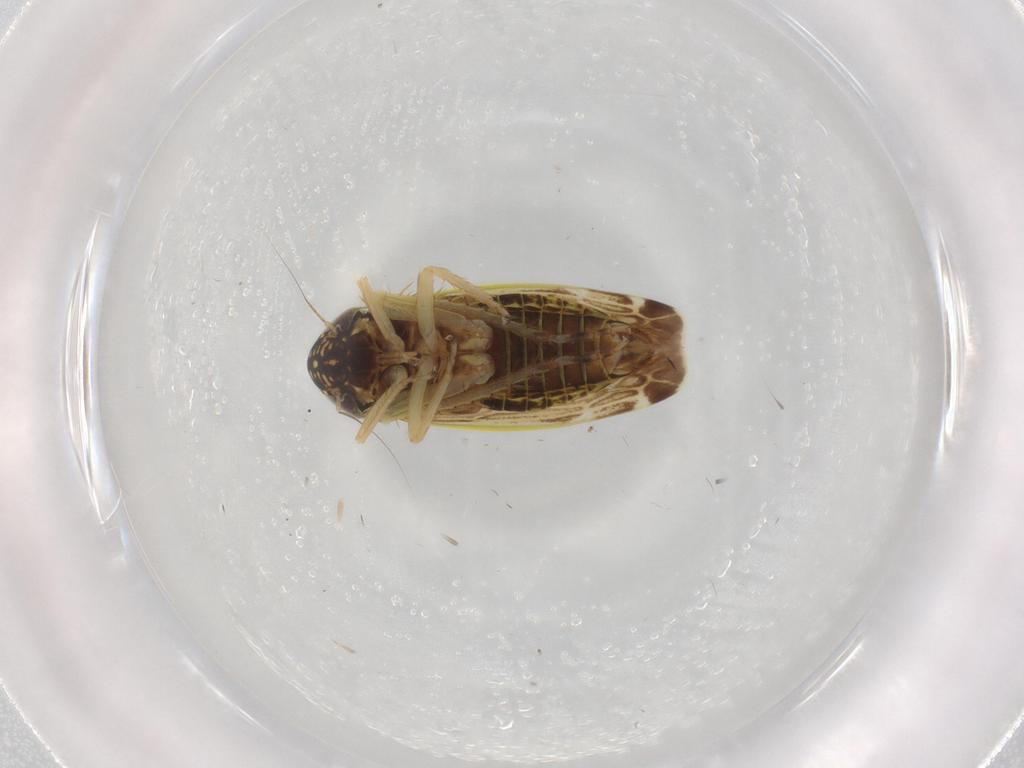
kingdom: Animalia
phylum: Arthropoda
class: Insecta
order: Hemiptera
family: Cicadellidae
